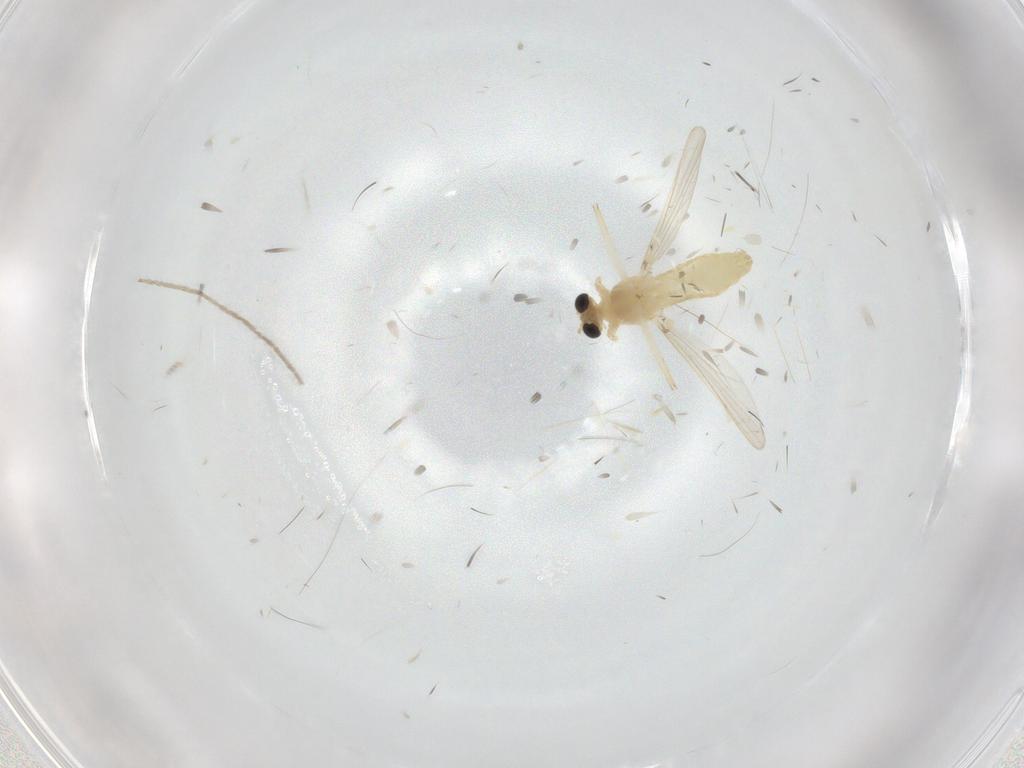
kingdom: Animalia
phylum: Arthropoda
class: Insecta
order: Diptera
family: Chironomidae
